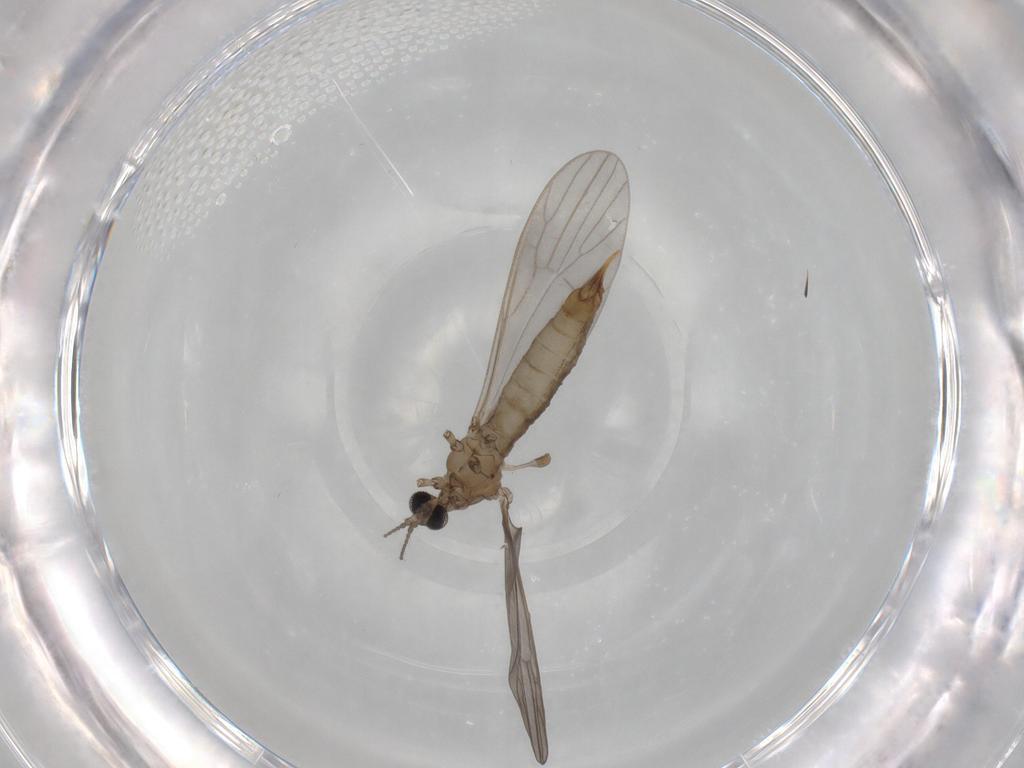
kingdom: Animalia
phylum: Arthropoda
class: Insecta
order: Diptera
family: Limoniidae
